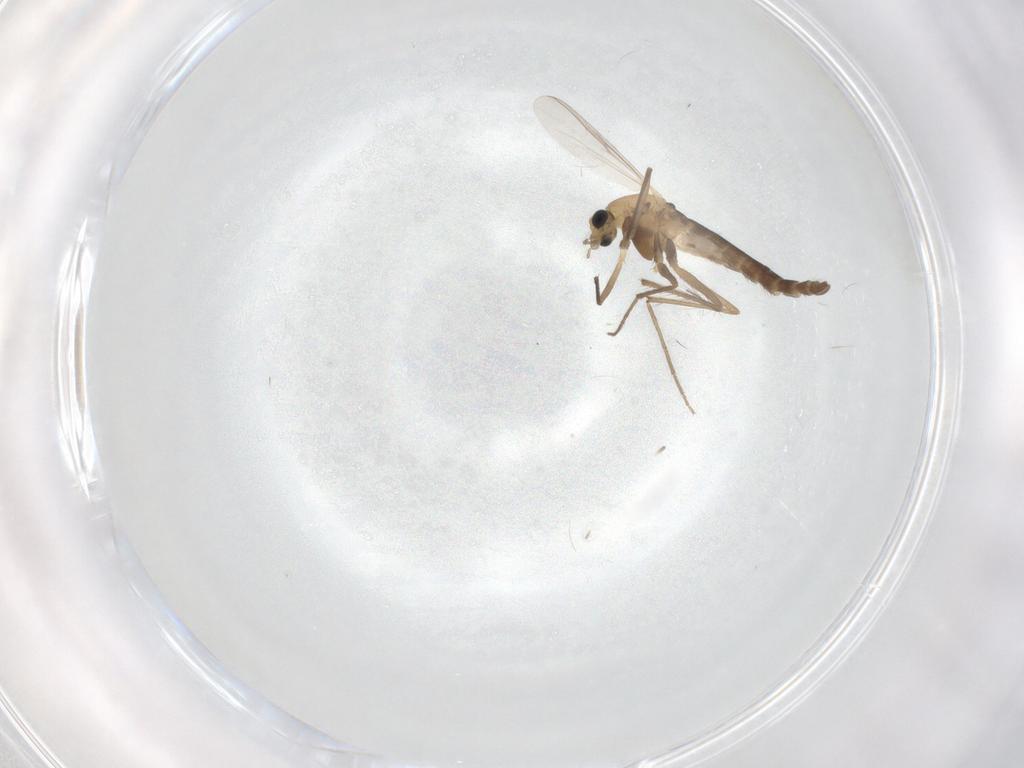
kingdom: Animalia
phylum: Arthropoda
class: Insecta
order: Diptera
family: Chironomidae
